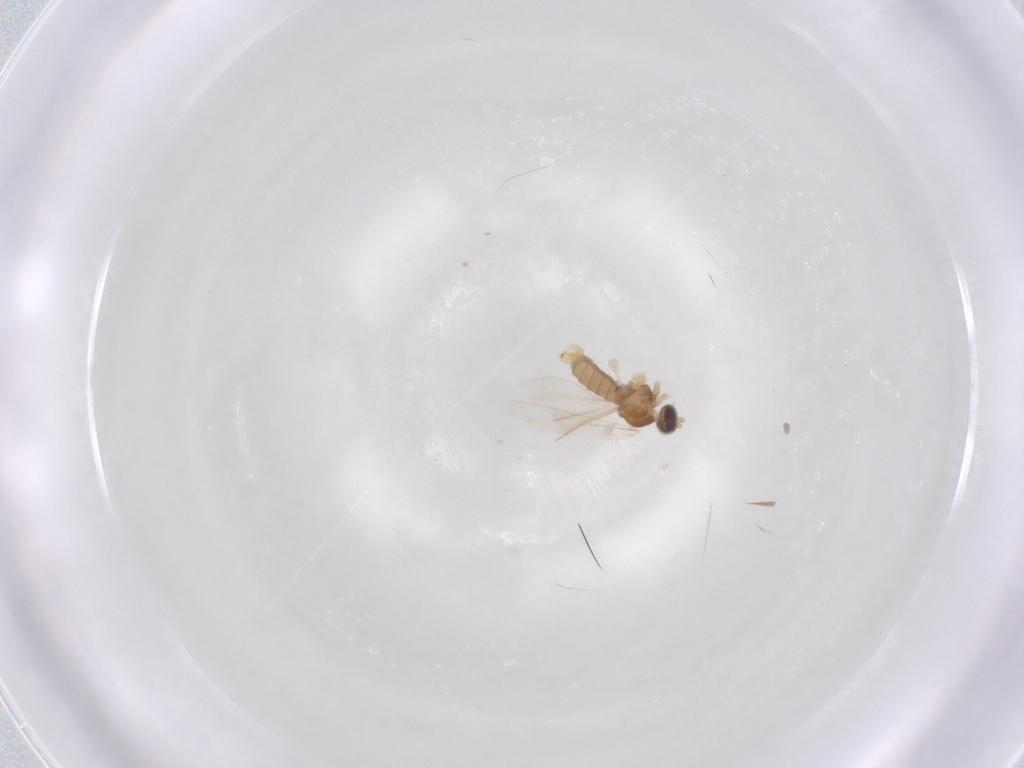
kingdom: Animalia
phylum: Arthropoda
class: Insecta
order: Diptera
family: Cecidomyiidae
